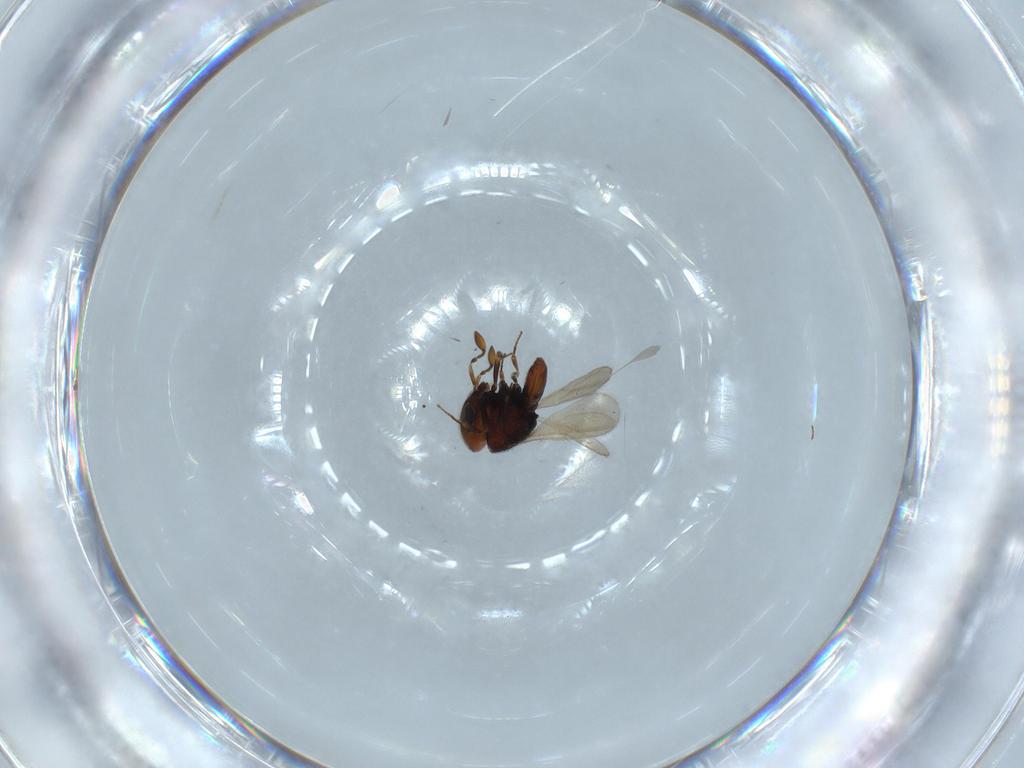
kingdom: Animalia
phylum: Arthropoda
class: Insecta
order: Hymenoptera
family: Scelionidae
